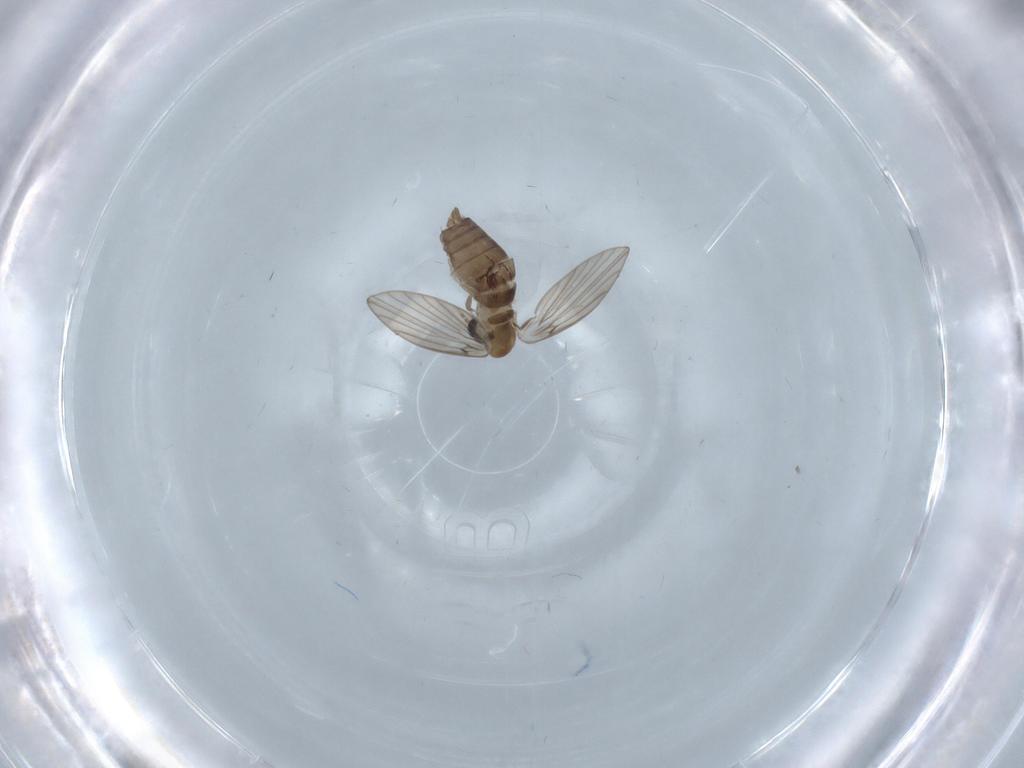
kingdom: Animalia
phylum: Arthropoda
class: Insecta
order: Diptera
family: Psychodidae
